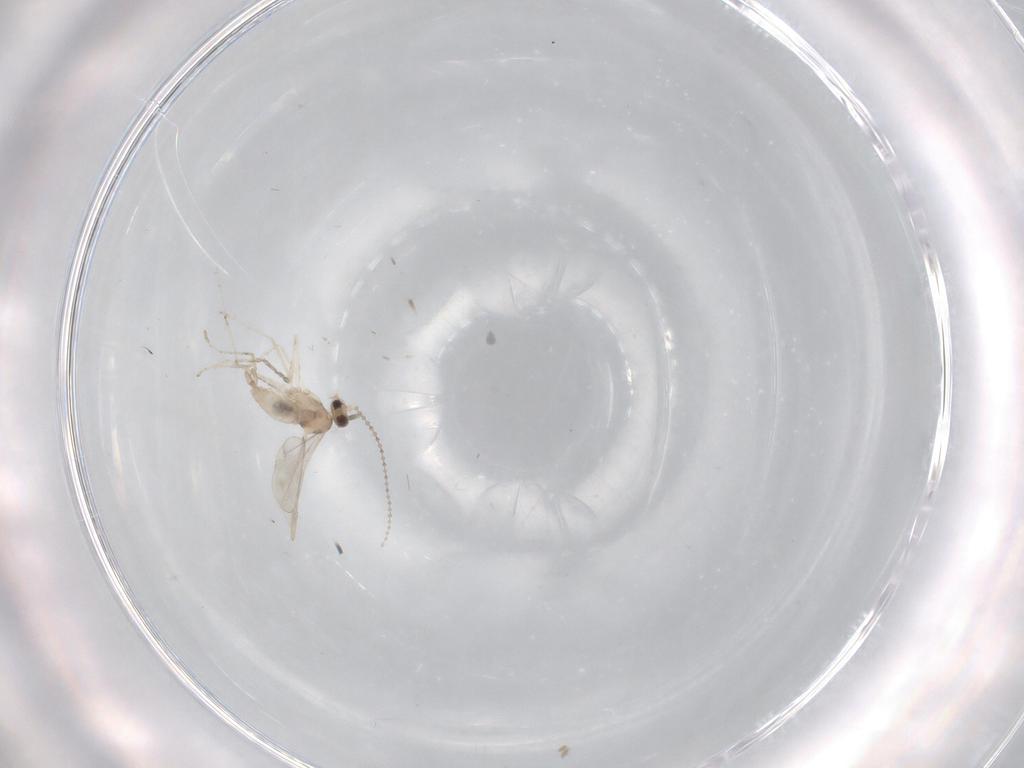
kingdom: Animalia
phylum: Arthropoda
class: Insecta
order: Diptera
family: Cecidomyiidae
